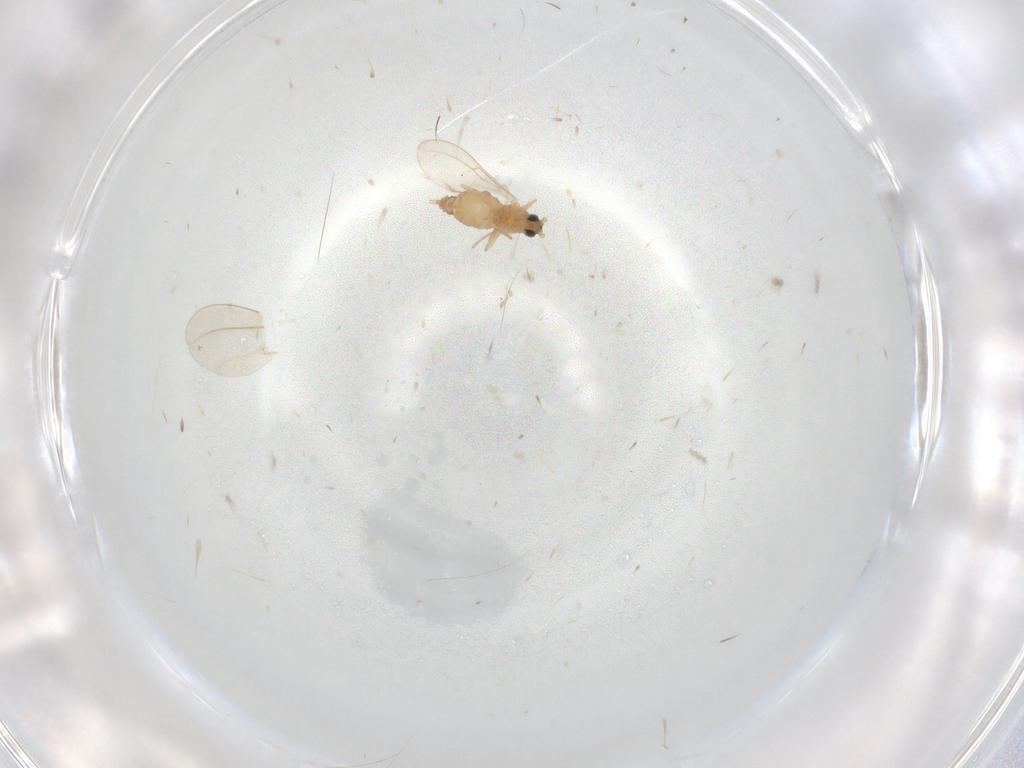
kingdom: Animalia
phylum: Arthropoda
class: Insecta
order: Diptera
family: Cecidomyiidae
